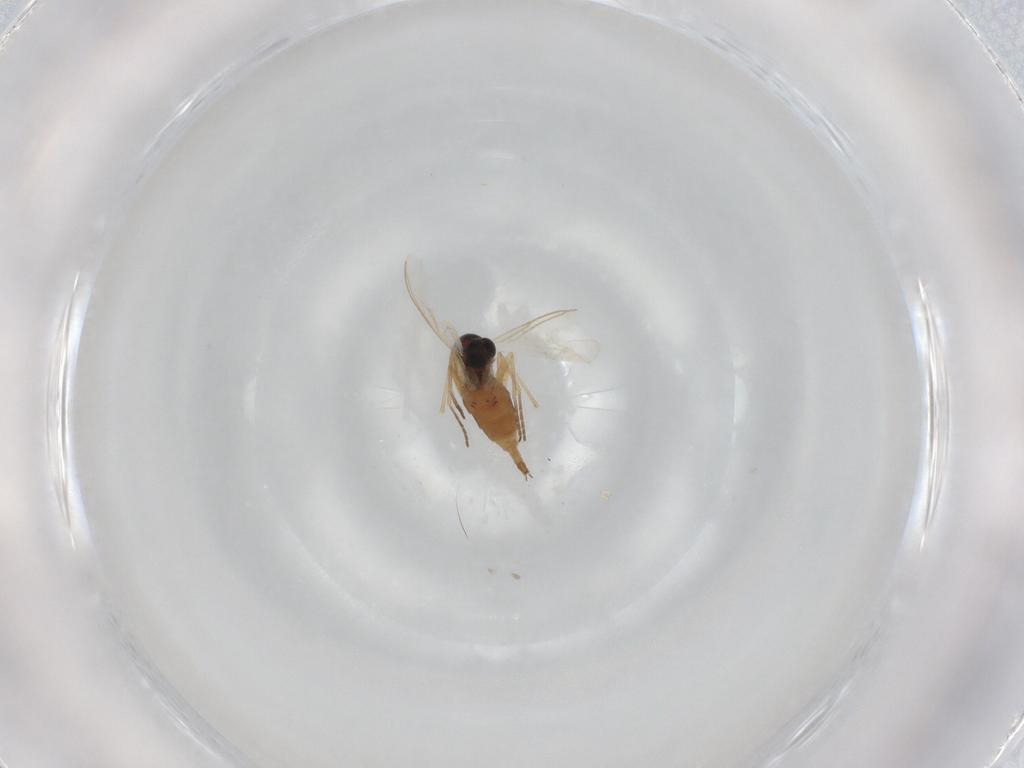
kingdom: Animalia
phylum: Arthropoda
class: Insecta
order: Diptera
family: Sciaridae
